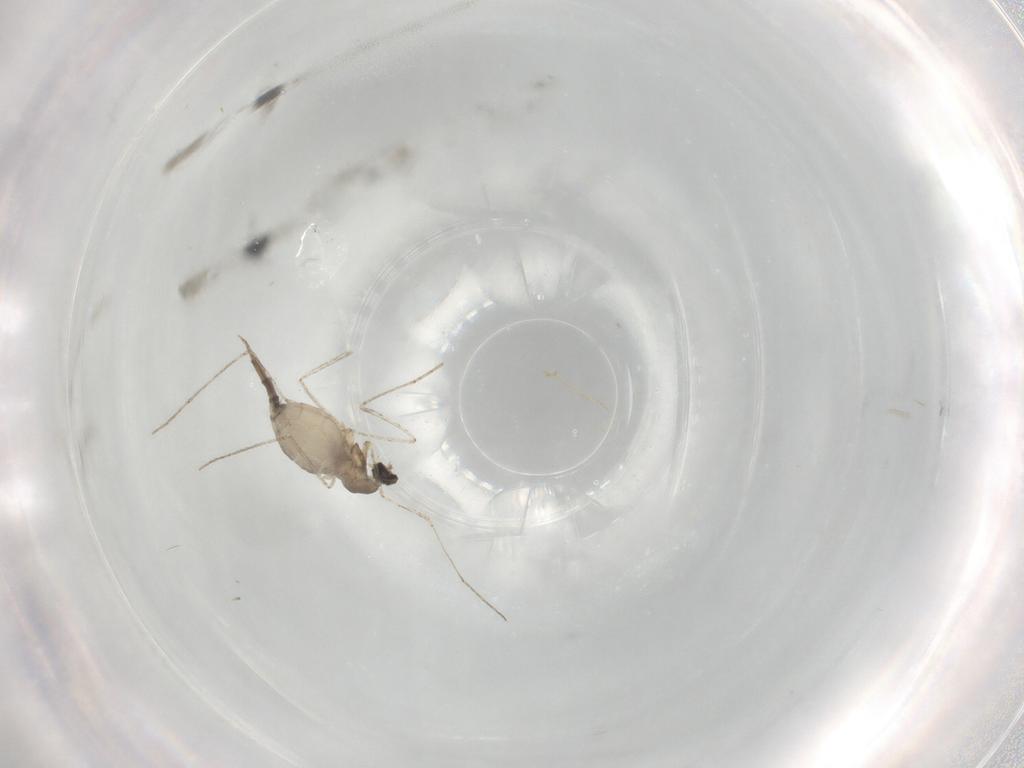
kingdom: Animalia
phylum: Arthropoda
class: Insecta
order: Diptera
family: Cecidomyiidae
